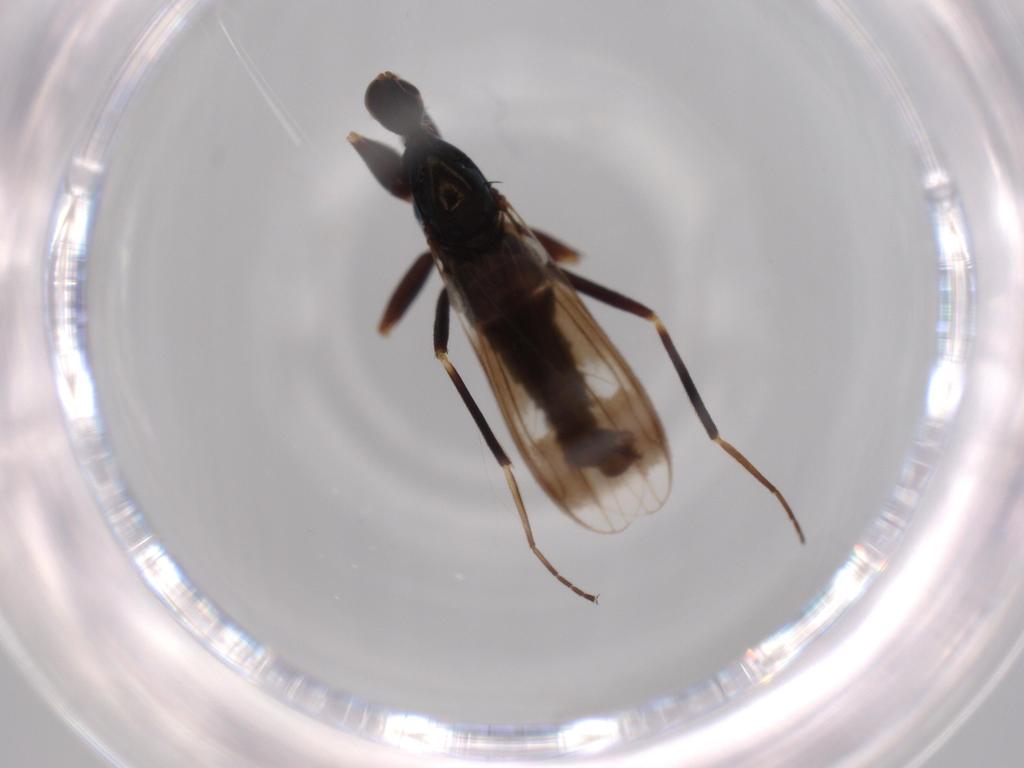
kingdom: Animalia
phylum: Arthropoda
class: Insecta
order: Diptera
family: Hybotidae
